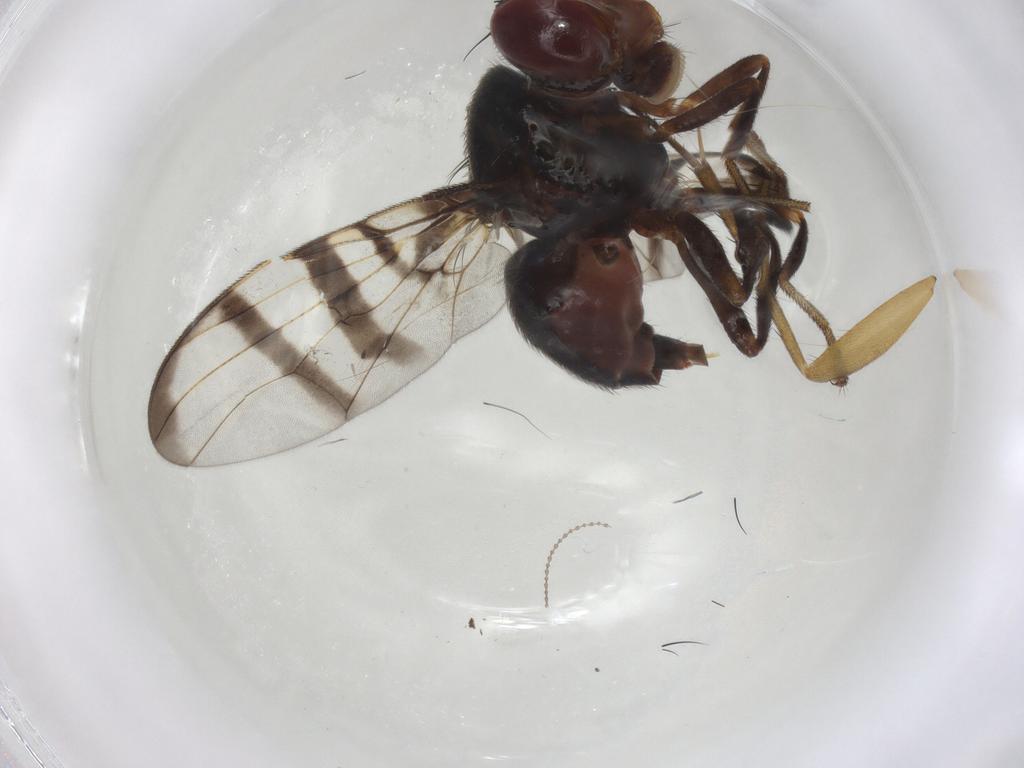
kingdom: Animalia
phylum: Arthropoda
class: Insecta
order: Diptera
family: Platystomatidae
